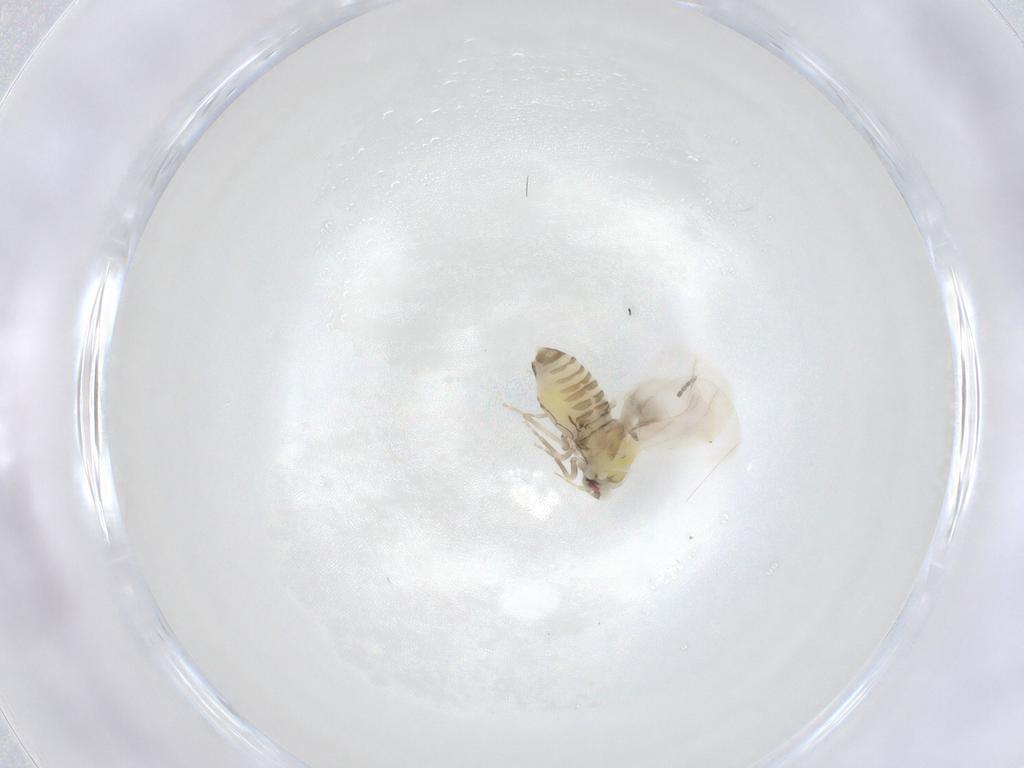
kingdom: Animalia
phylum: Arthropoda
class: Insecta
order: Hemiptera
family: Aleyrodidae
